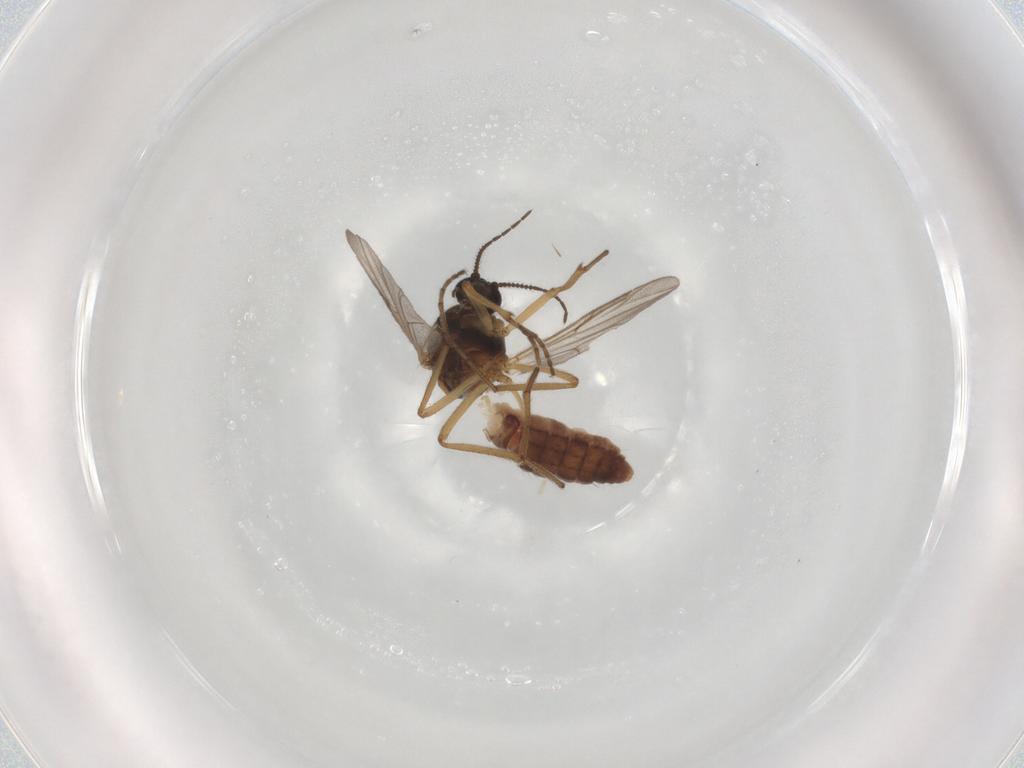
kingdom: Animalia
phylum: Arthropoda
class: Insecta
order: Diptera
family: Ceratopogonidae
